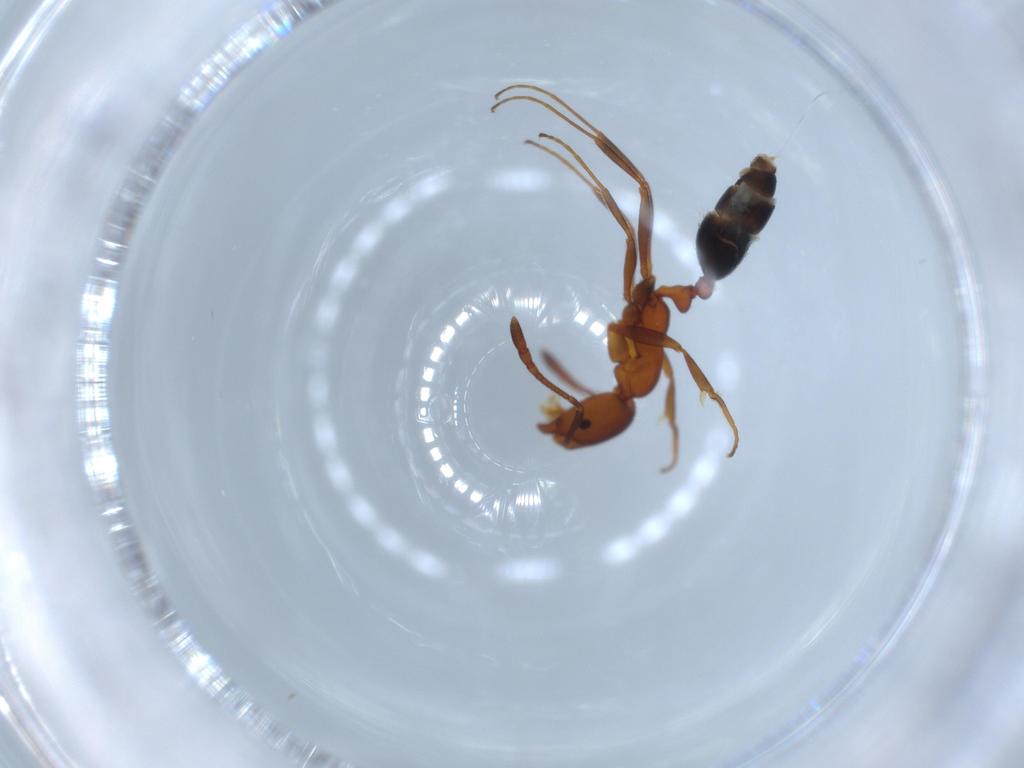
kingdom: Animalia
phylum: Arthropoda
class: Insecta
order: Hymenoptera
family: Formicidae
